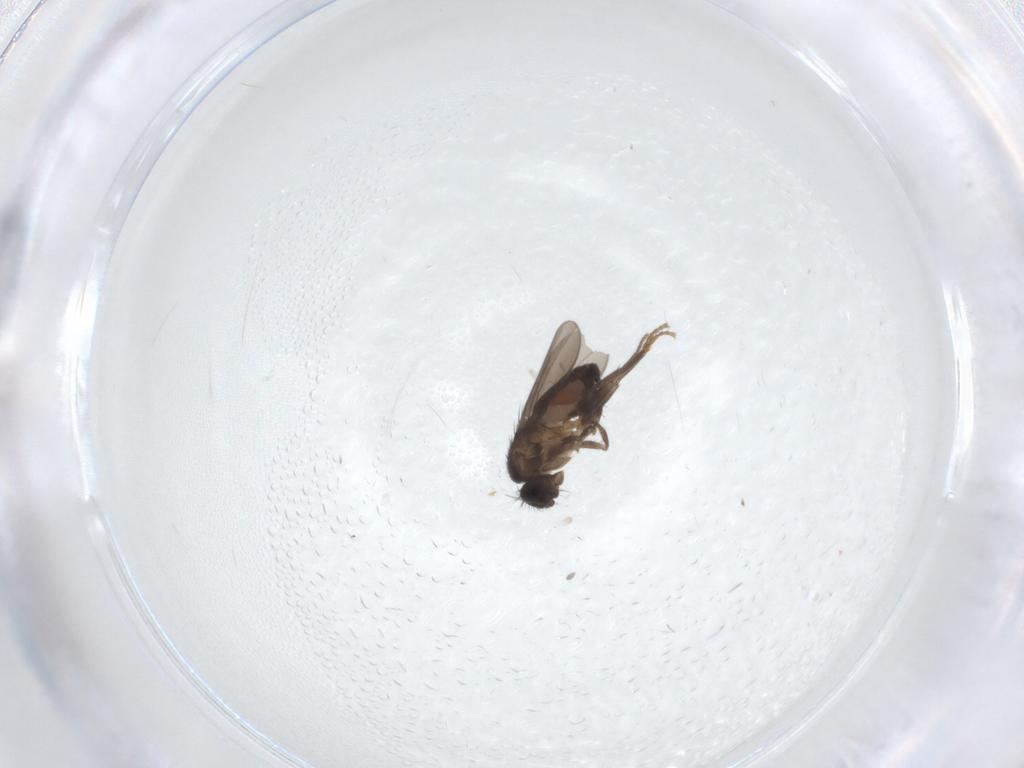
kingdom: Animalia
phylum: Arthropoda
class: Insecta
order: Diptera
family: Sphaeroceridae
